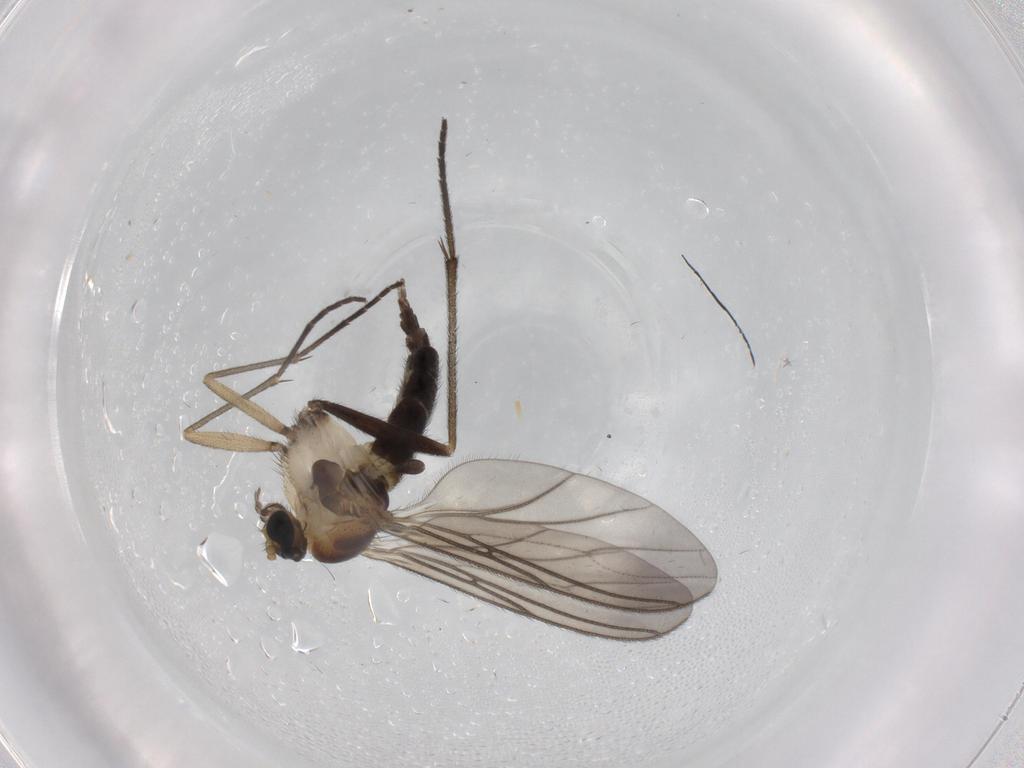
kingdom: Animalia
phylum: Arthropoda
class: Insecta
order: Diptera
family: Sciaridae
